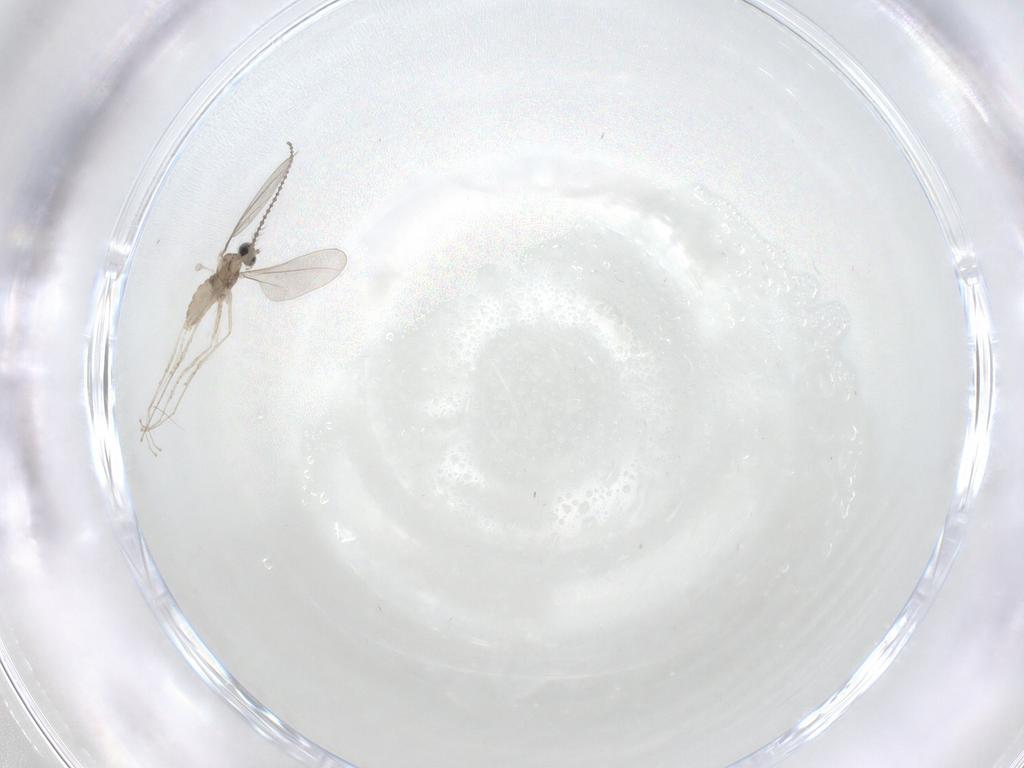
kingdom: Animalia
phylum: Arthropoda
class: Insecta
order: Diptera
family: Cecidomyiidae
